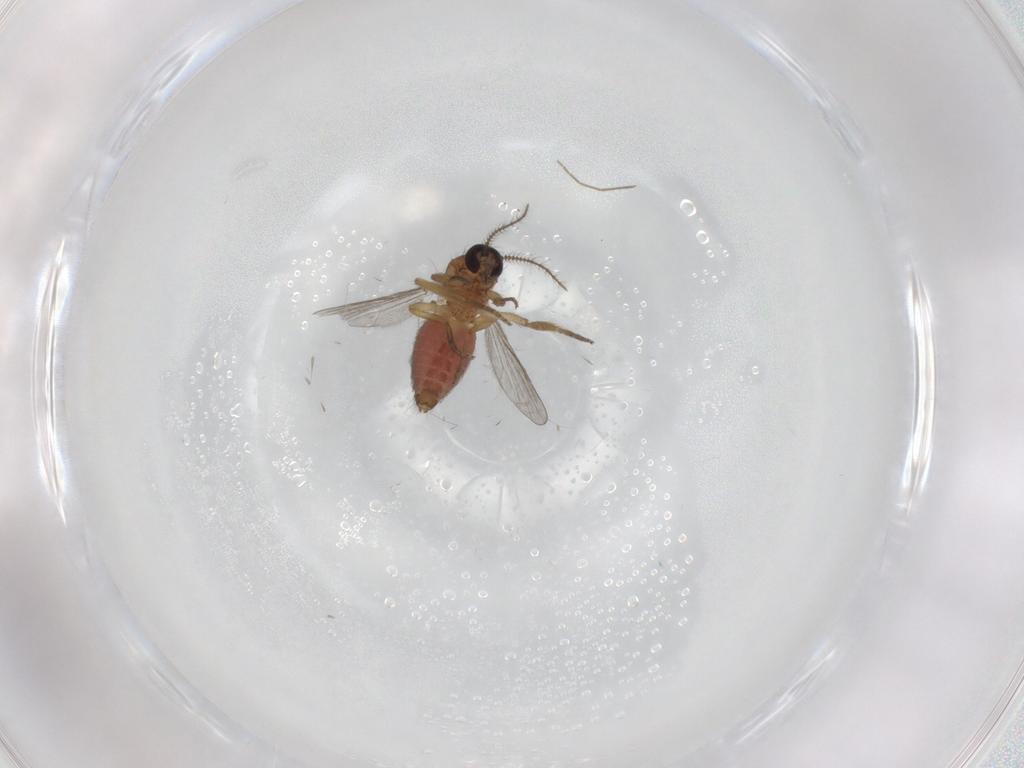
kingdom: Animalia
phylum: Arthropoda
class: Insecta
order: Diptera
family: Ceratopogonidae
